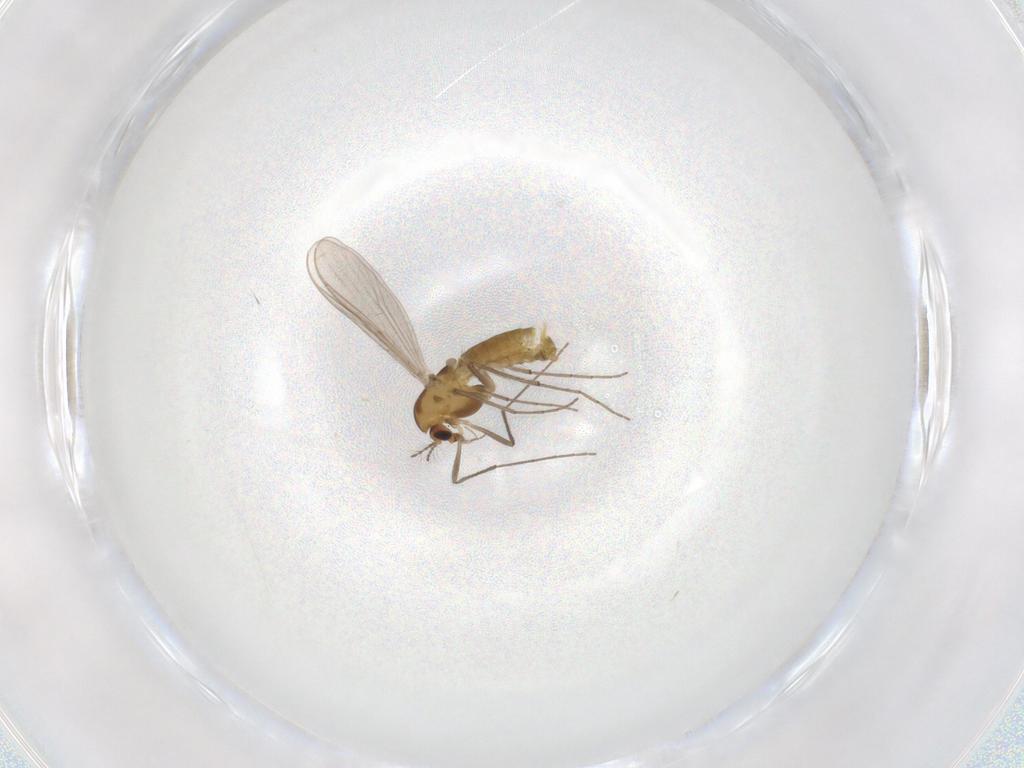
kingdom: Animalia
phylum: Arthropoda
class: Insecta
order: Diptera
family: Chironomidae
